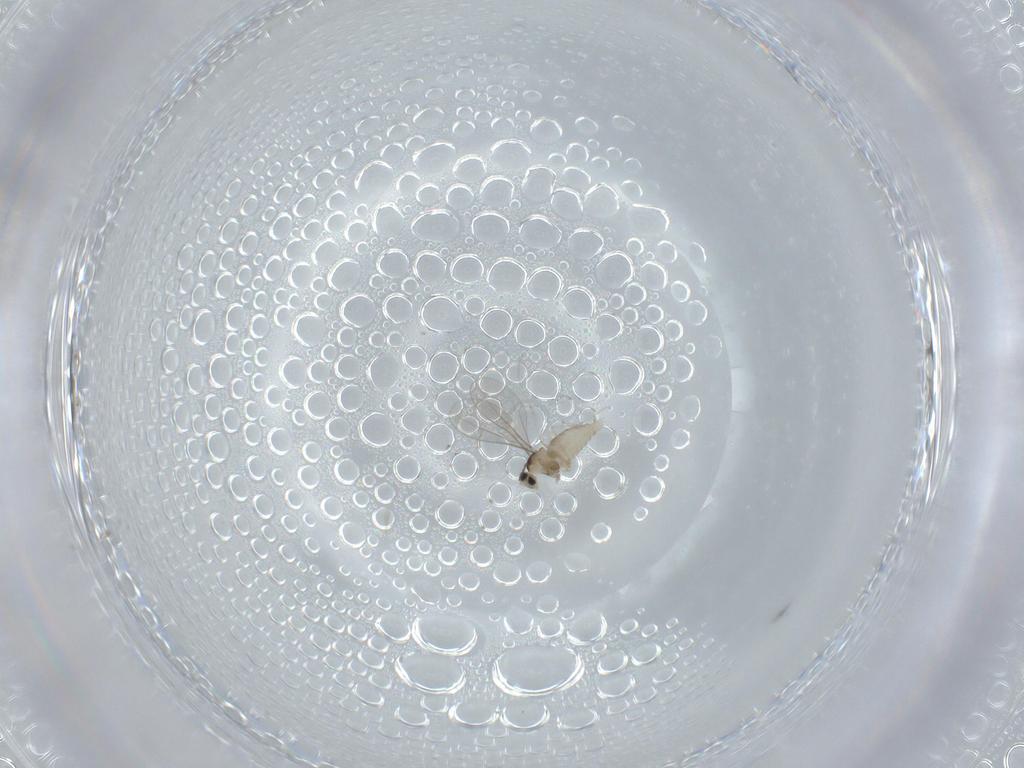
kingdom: Animalia
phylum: Arthropoda
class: Insecta
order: Diptera
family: Cecidomyiidae
